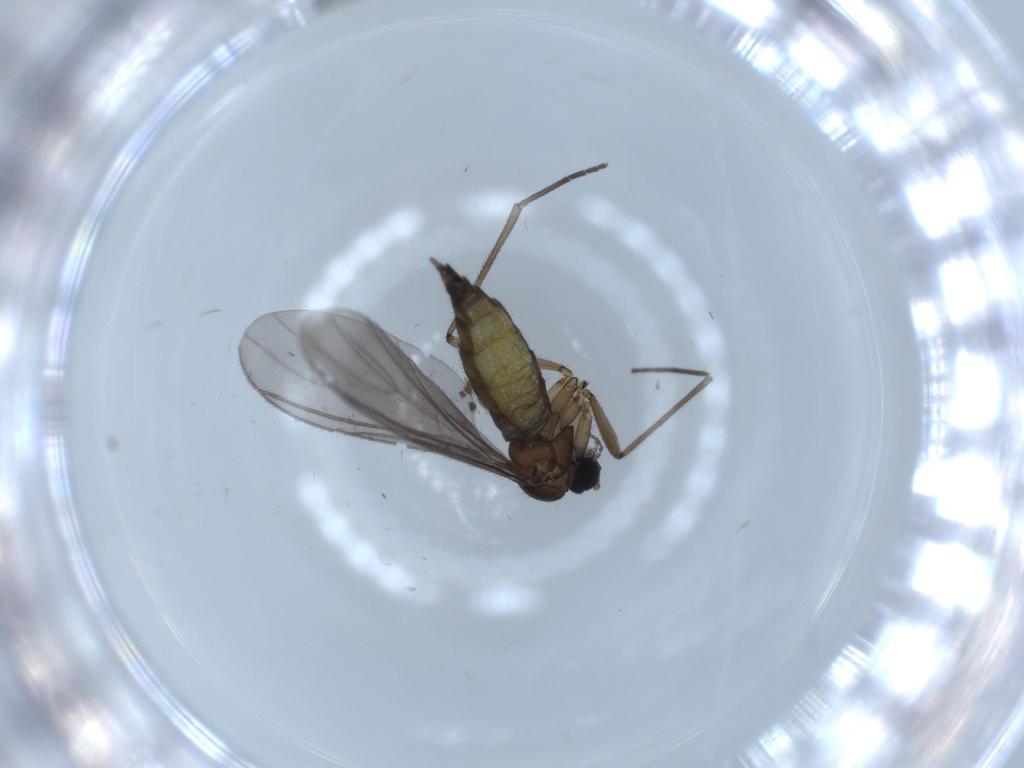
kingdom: Animalia
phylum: Arthropoda
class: Insecta
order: Diptera
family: Sciaridae
